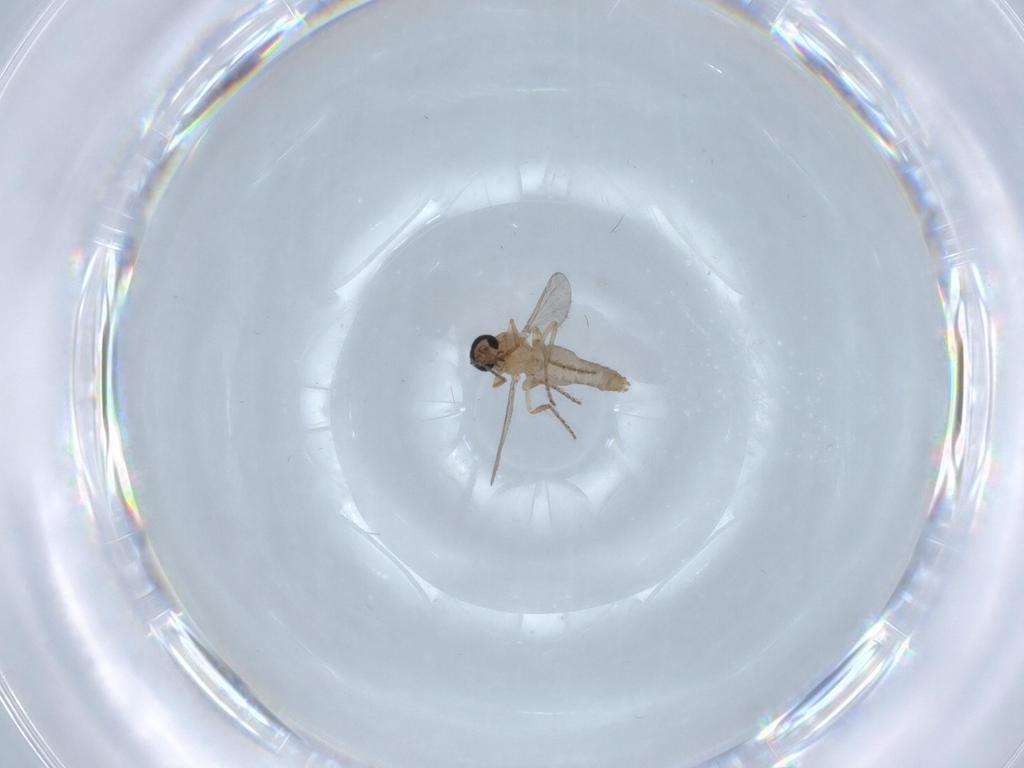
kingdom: Animalia
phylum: Arthropoda
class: Insecta
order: Diptera
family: Ceratopogonidae
